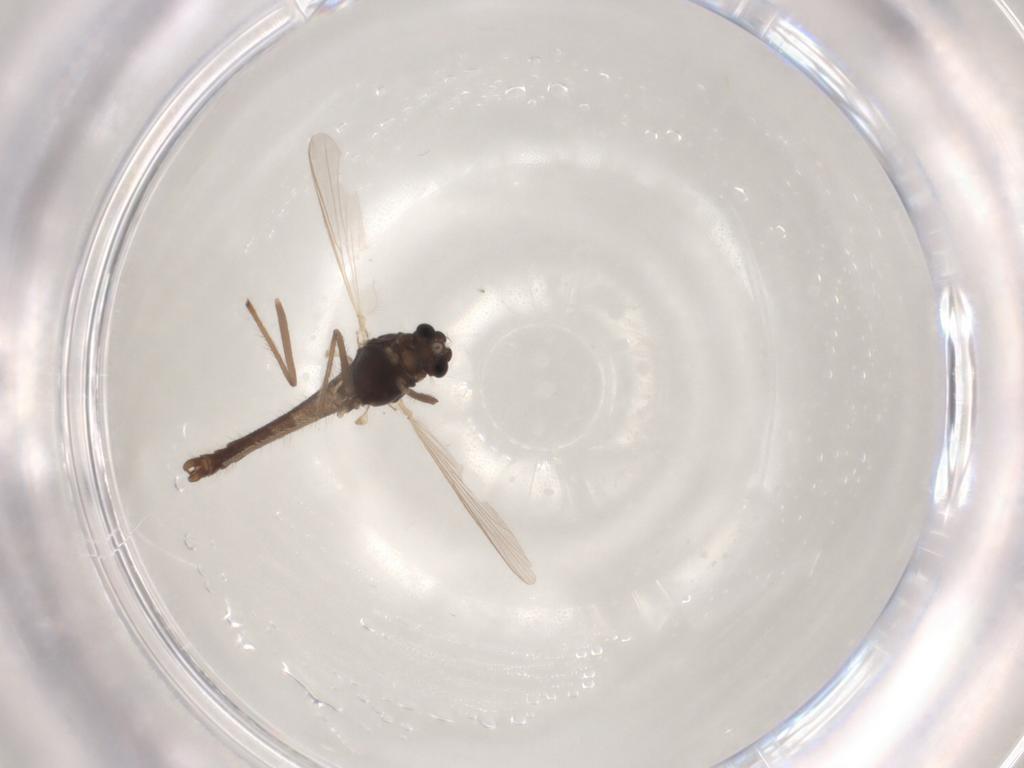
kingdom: Animalia
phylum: Arthropoda
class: Insecta
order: Diptera
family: Chironomidae
